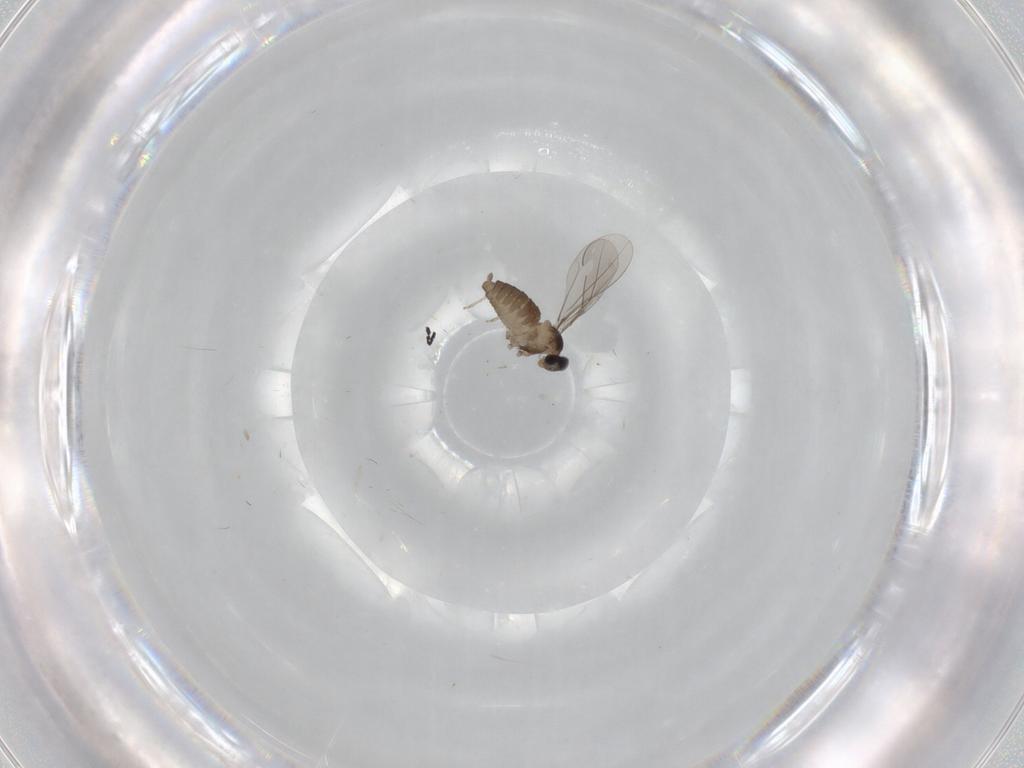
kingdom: Animalia
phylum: Arthropoda
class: Insecta
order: Diptera
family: Cecidomyiidae
